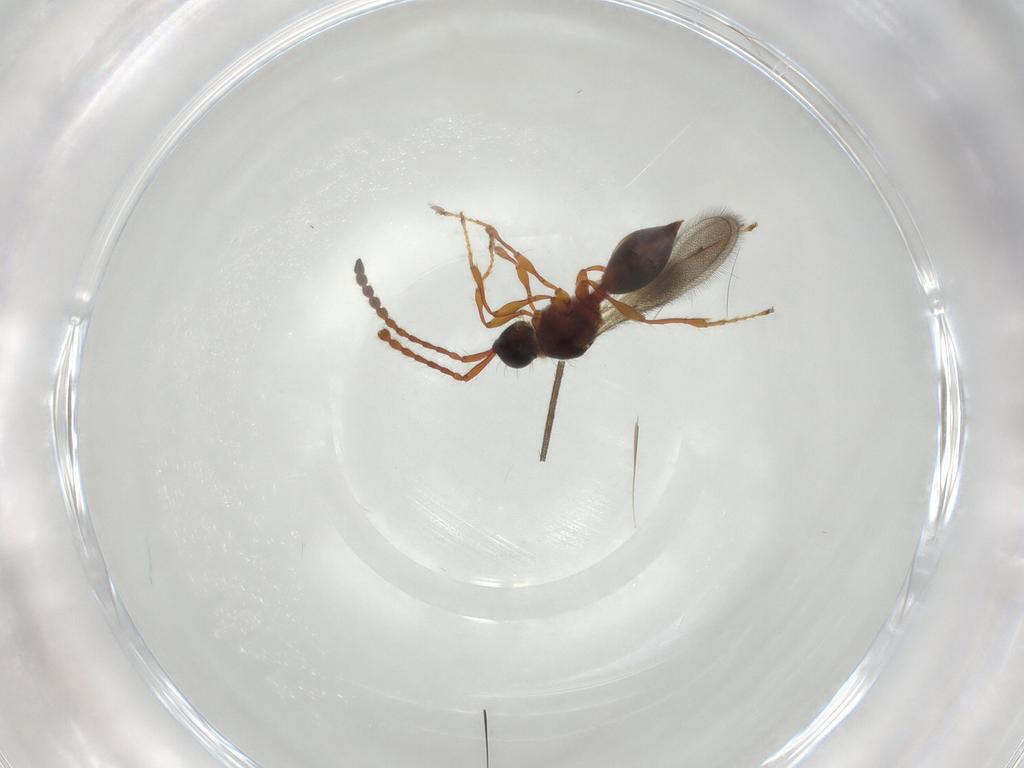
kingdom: Animalia
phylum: Arthropoda
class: Insecta
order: Hymenoptera
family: Diapriidae
